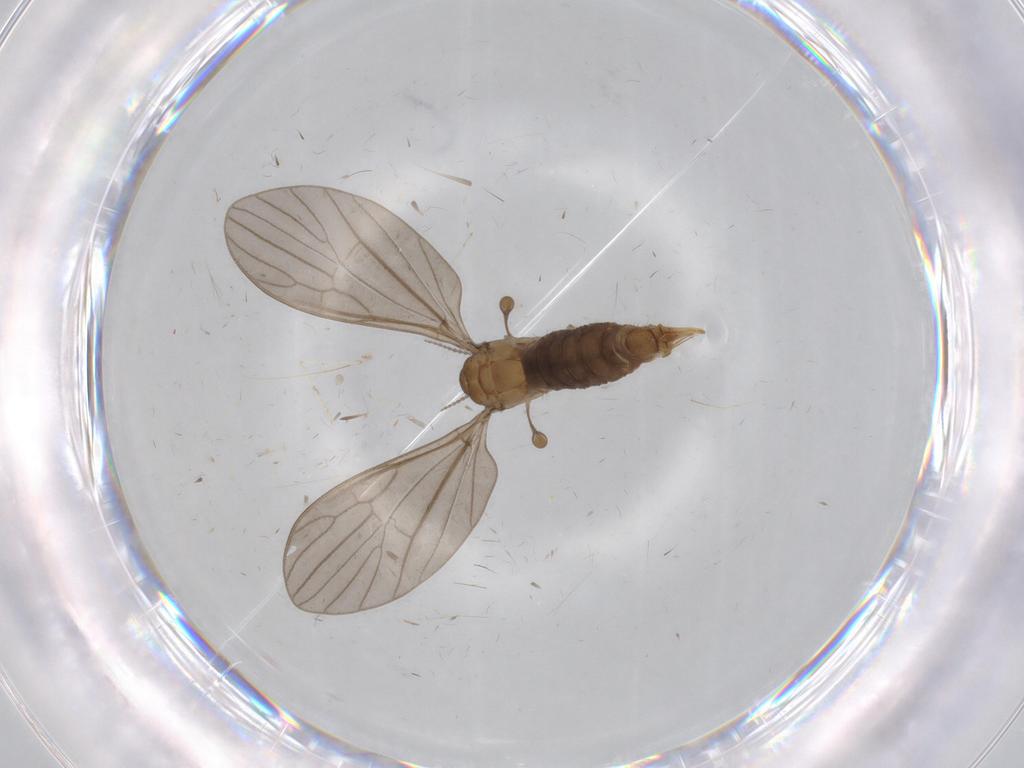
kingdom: Animalia
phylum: Arthropoda
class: Insecta
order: Diptera
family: Limoniidae
